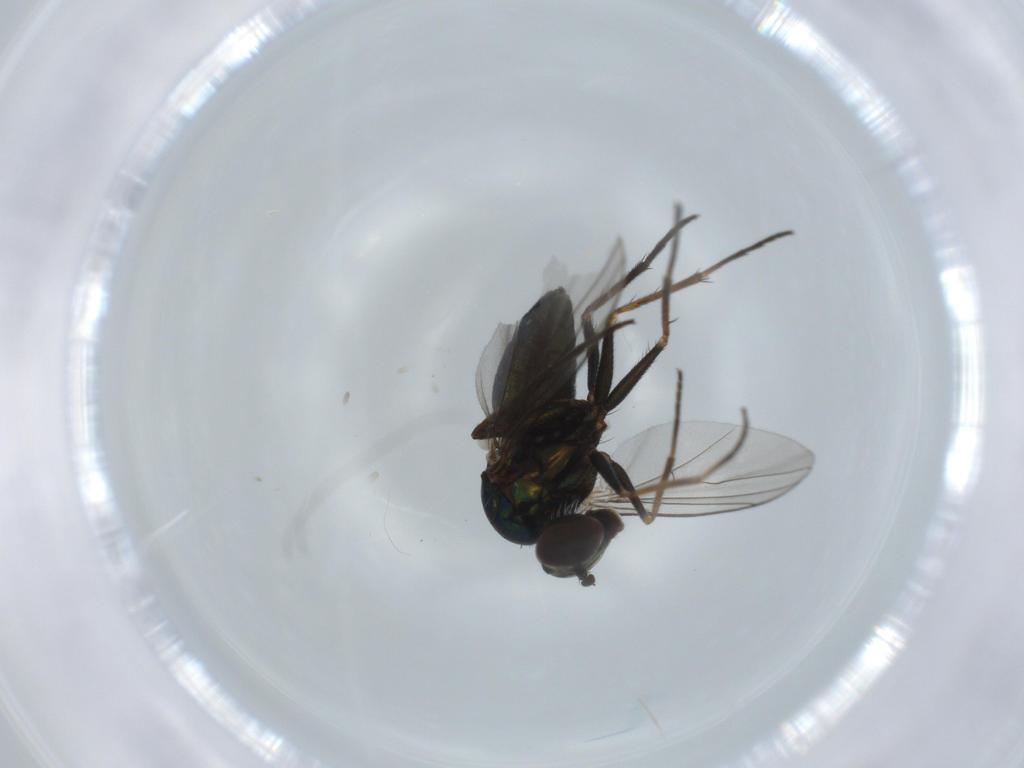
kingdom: Animalia
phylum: Arthropoda
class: Insecta
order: Diptera
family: Dolichopodidae
